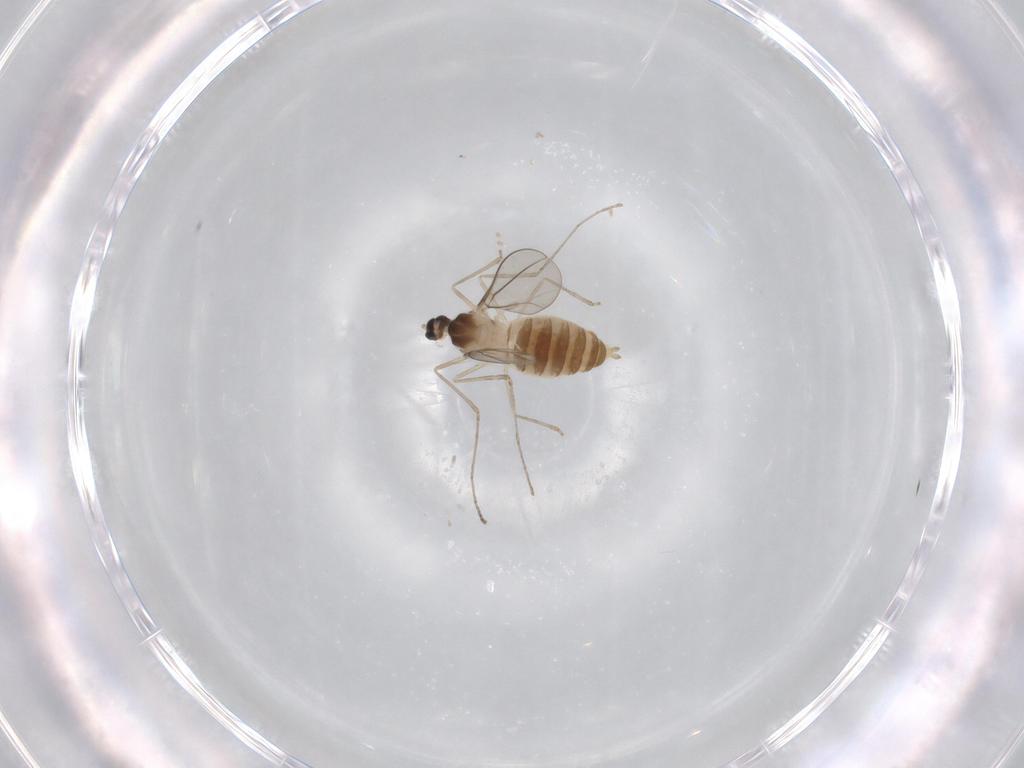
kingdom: Animalia
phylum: Arthropoda
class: Insecta
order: Diptera
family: Cecidomyiidae
